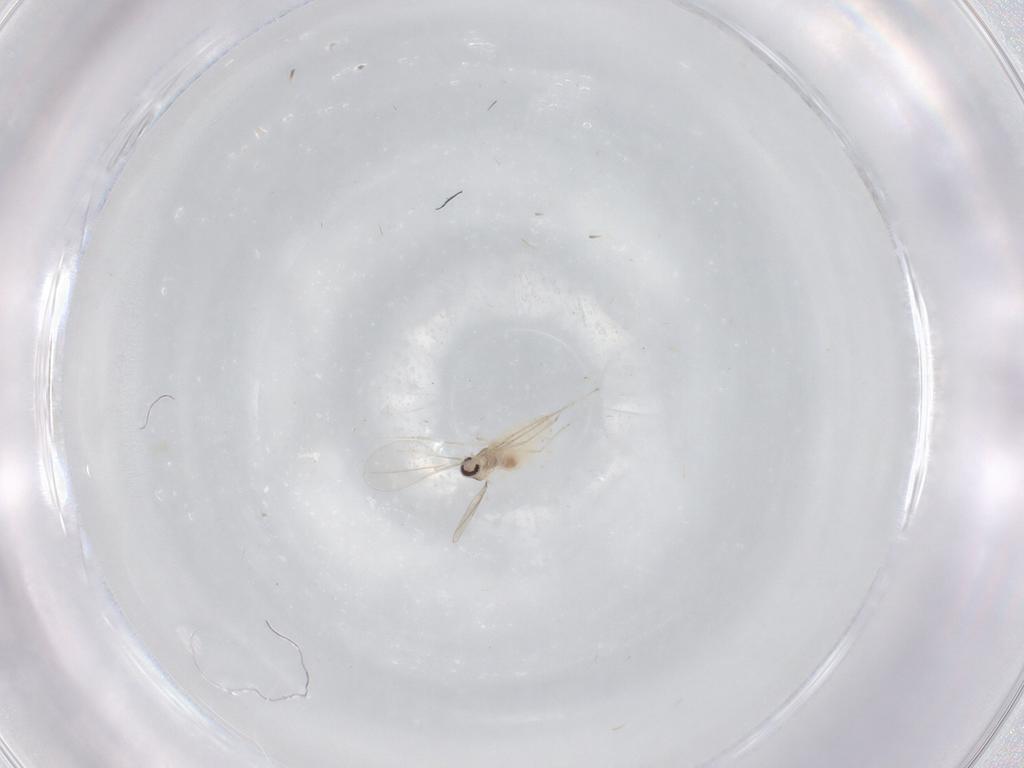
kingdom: Animalia
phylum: Arthropoda
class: Insecta
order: Diptera
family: Cecidomyiidae
